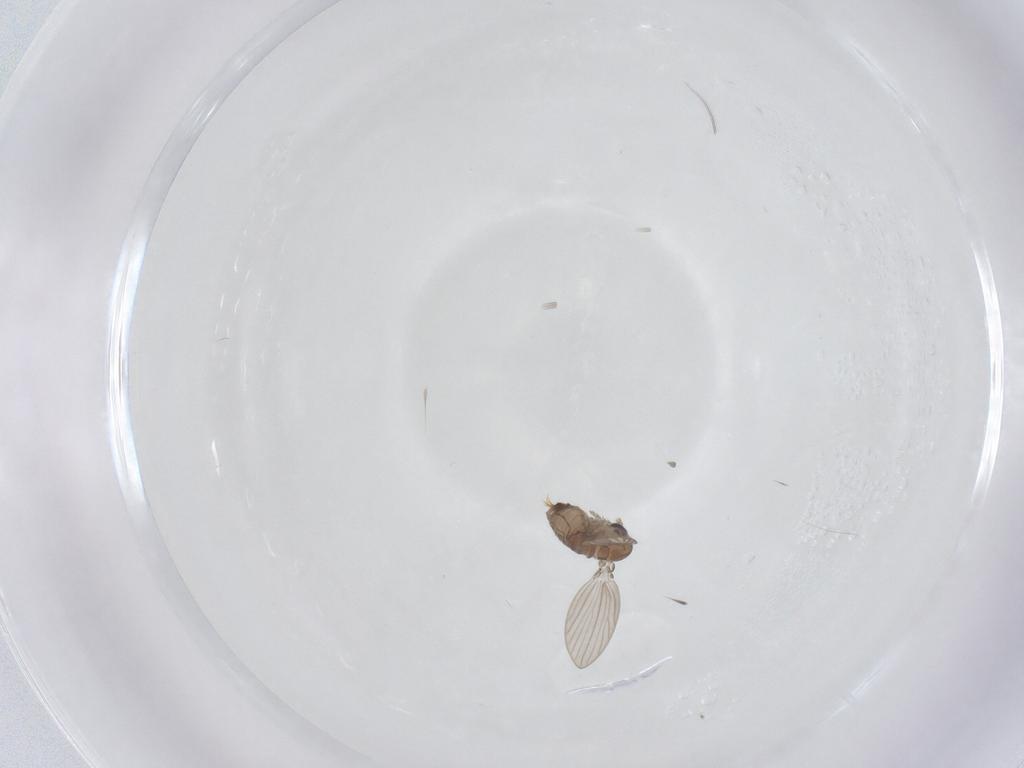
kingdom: Animalia
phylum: Arthropoda
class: Insecta
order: Diptera
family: Psychodidae
